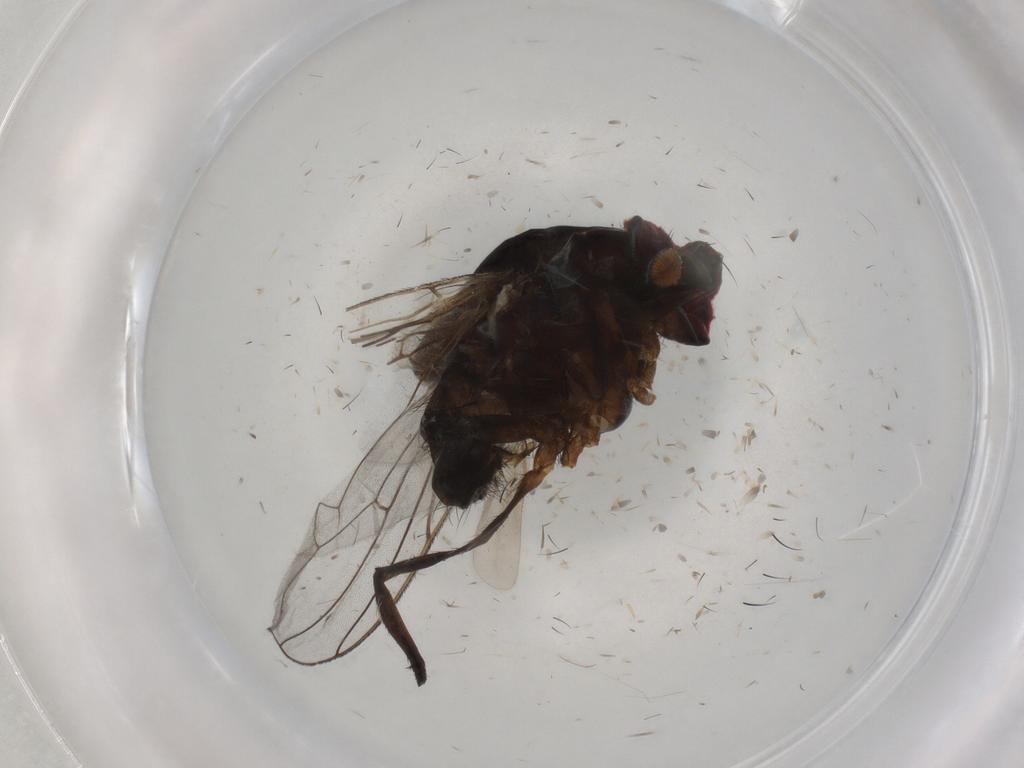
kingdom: Animalia
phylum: Arthropoda
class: Insecta
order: Diptera
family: Anthomyiidae
